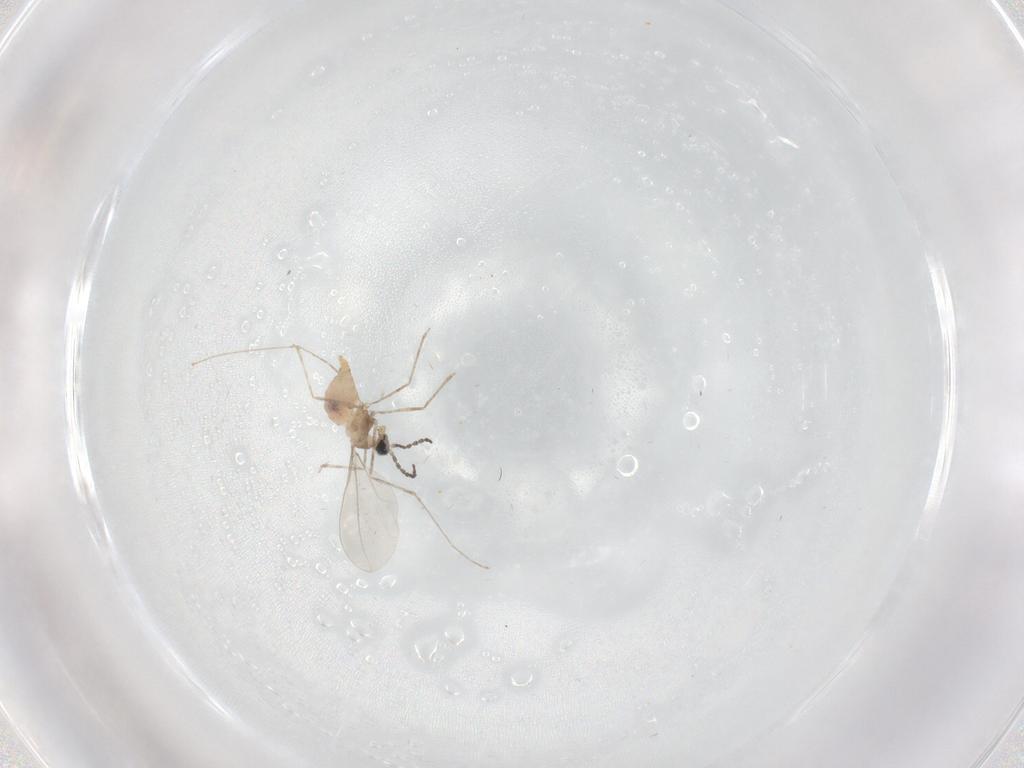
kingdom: Animalia
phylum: Arthropoda
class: Insecta
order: Diptera
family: Cecidomyiidae
